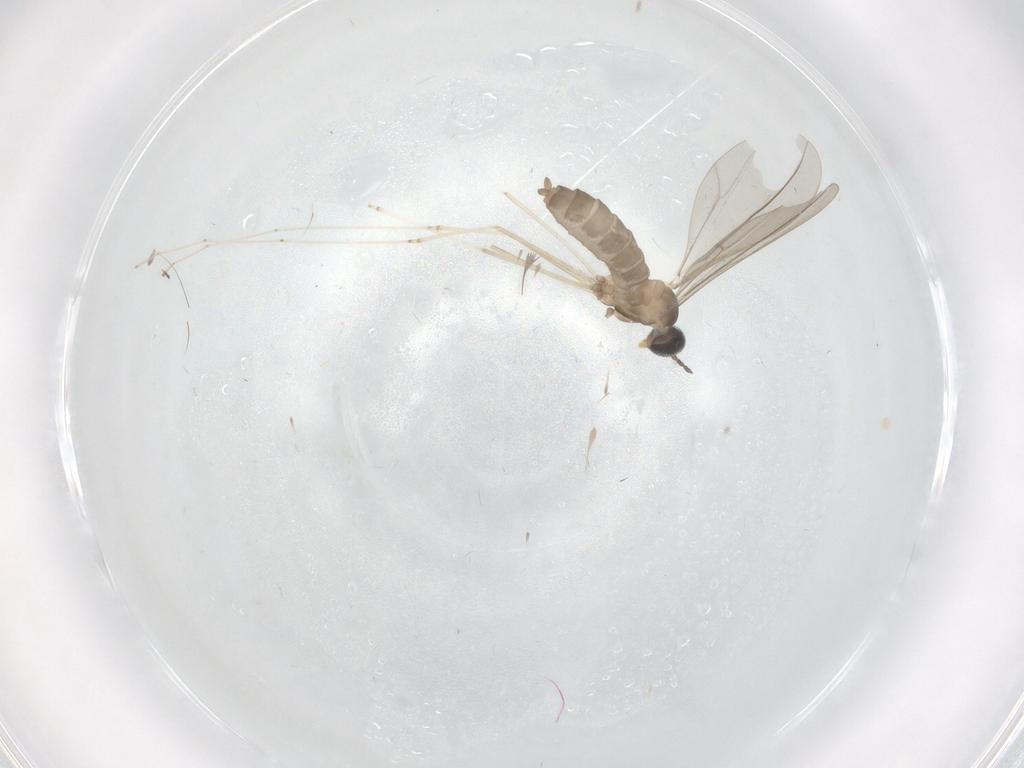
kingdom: Animalia
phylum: Arthropoda
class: Insecta
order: Diptera
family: Cecidomyiidae
